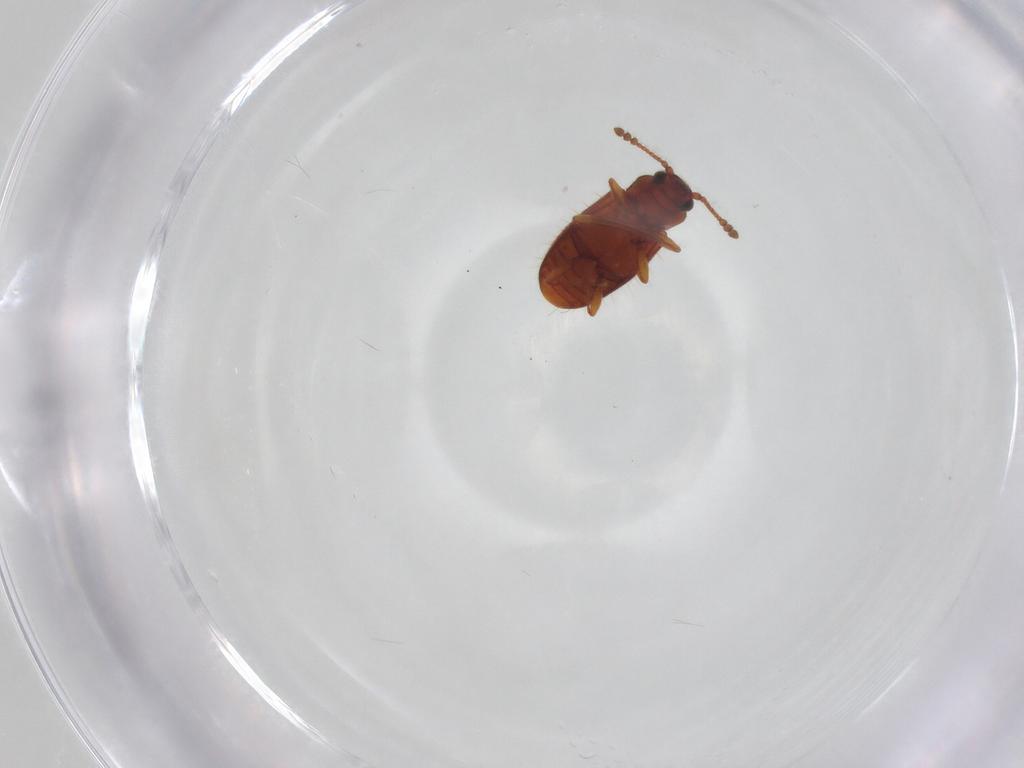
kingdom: Animalia
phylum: Arthropoda
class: Insecta
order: Coleoptera
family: Cryptophagidae
